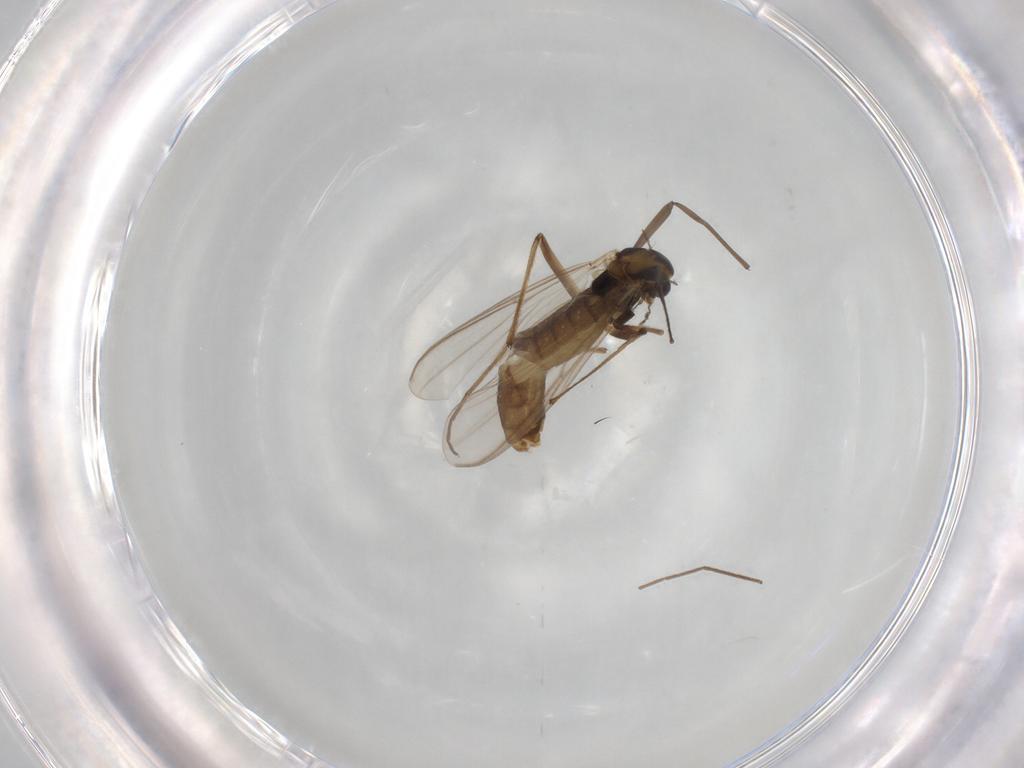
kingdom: Animalia
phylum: Arthropoda
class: Insecta
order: Diptera
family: Chironomidae
